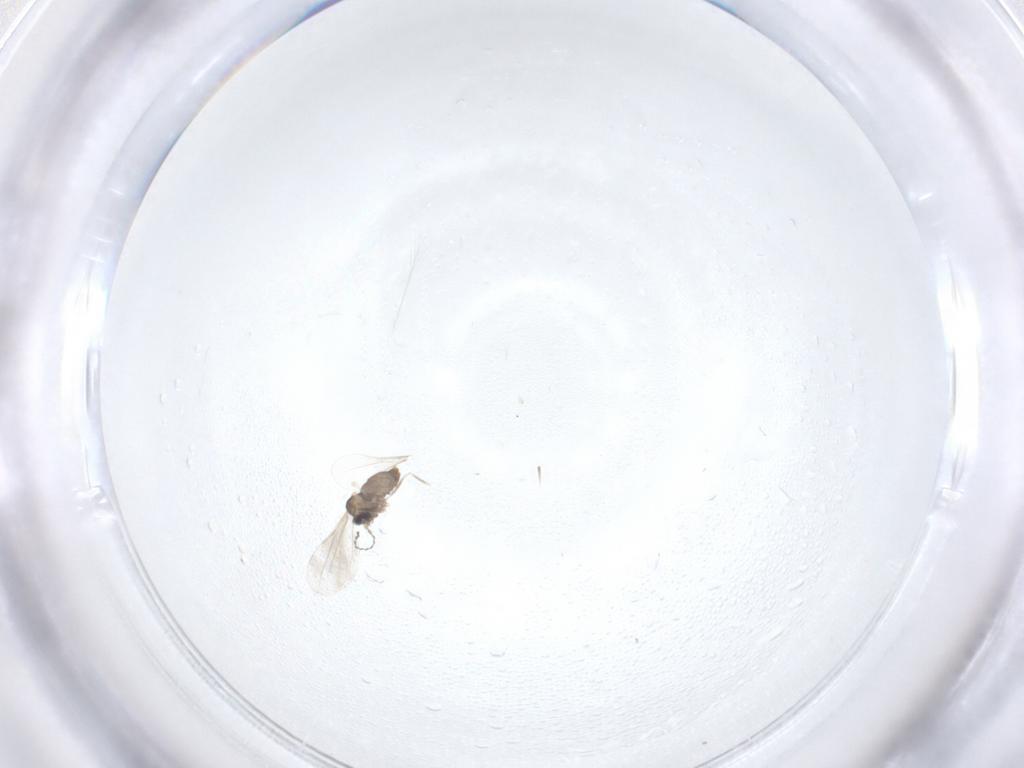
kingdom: Animalia
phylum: Arthropoda
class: Insecta
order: Diptera
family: Cecidomyiidae
